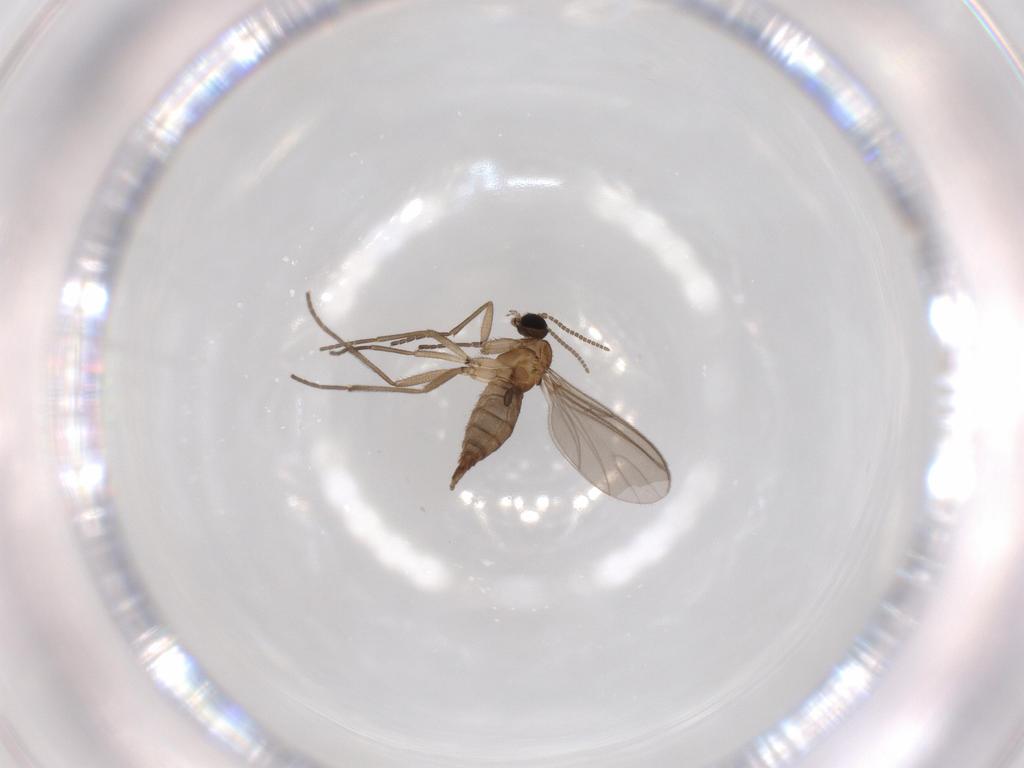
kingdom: Animalia
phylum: Arthropoda
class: Insecta
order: Diptera
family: Sciaridae
